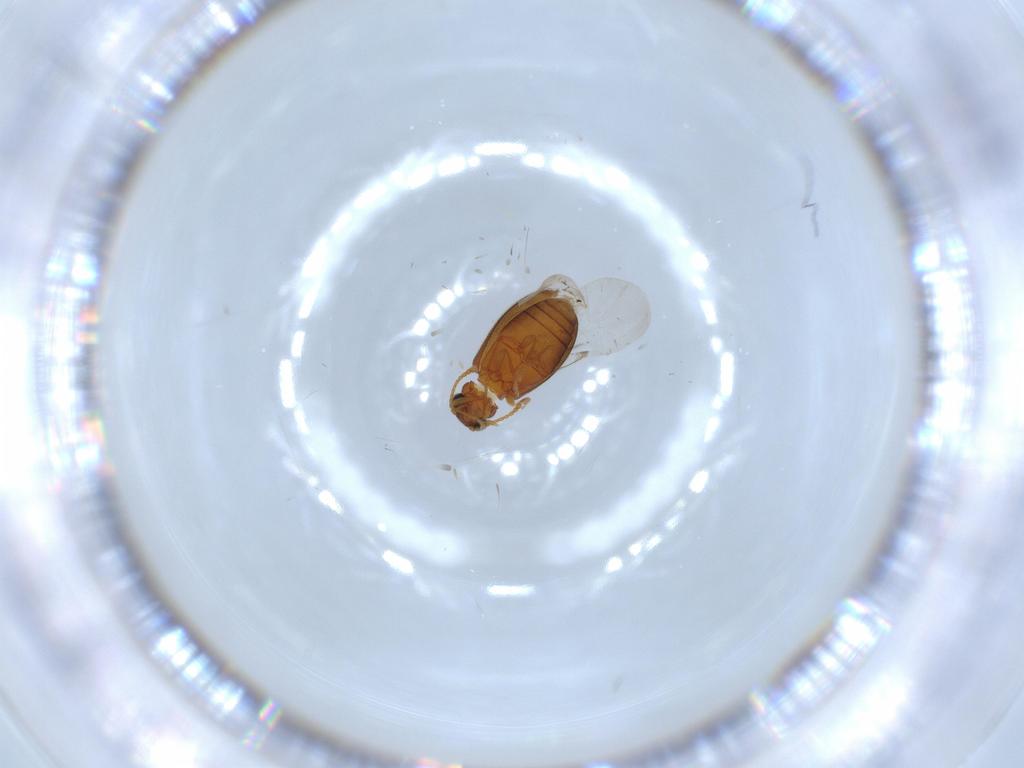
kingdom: Animalia
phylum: Arthropoda
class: Insecta
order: Coleoptera
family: Aderidae
